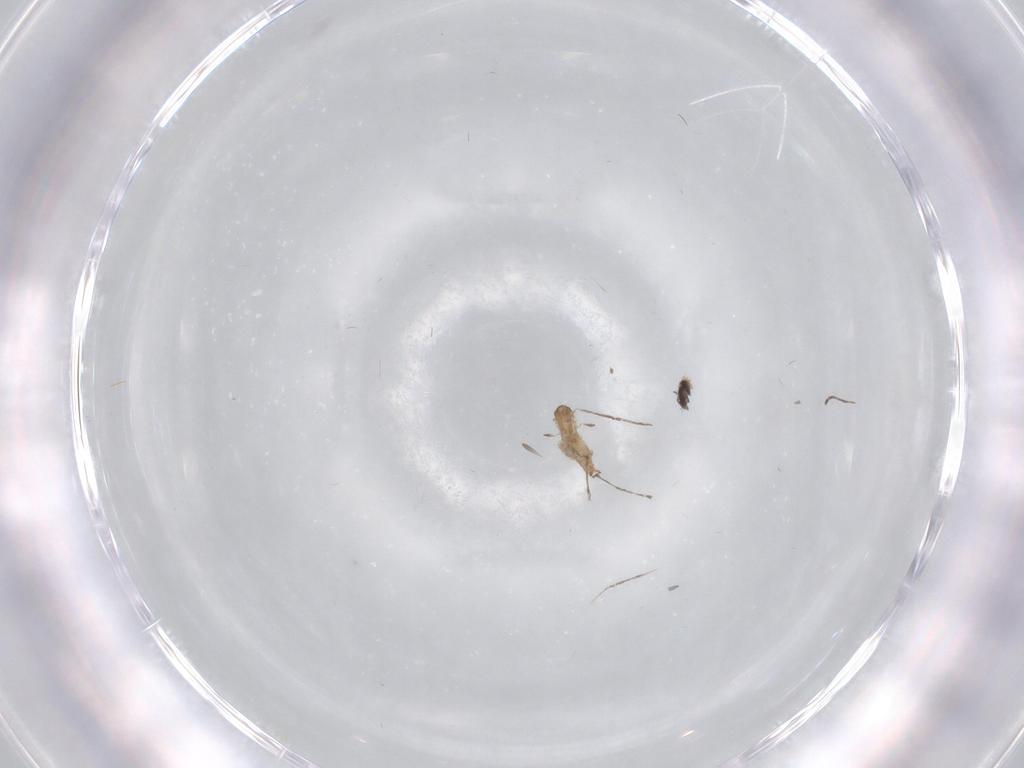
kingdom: Animalia
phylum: Arthropoda
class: Insecta
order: Diptera
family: Cecidomyiidae
